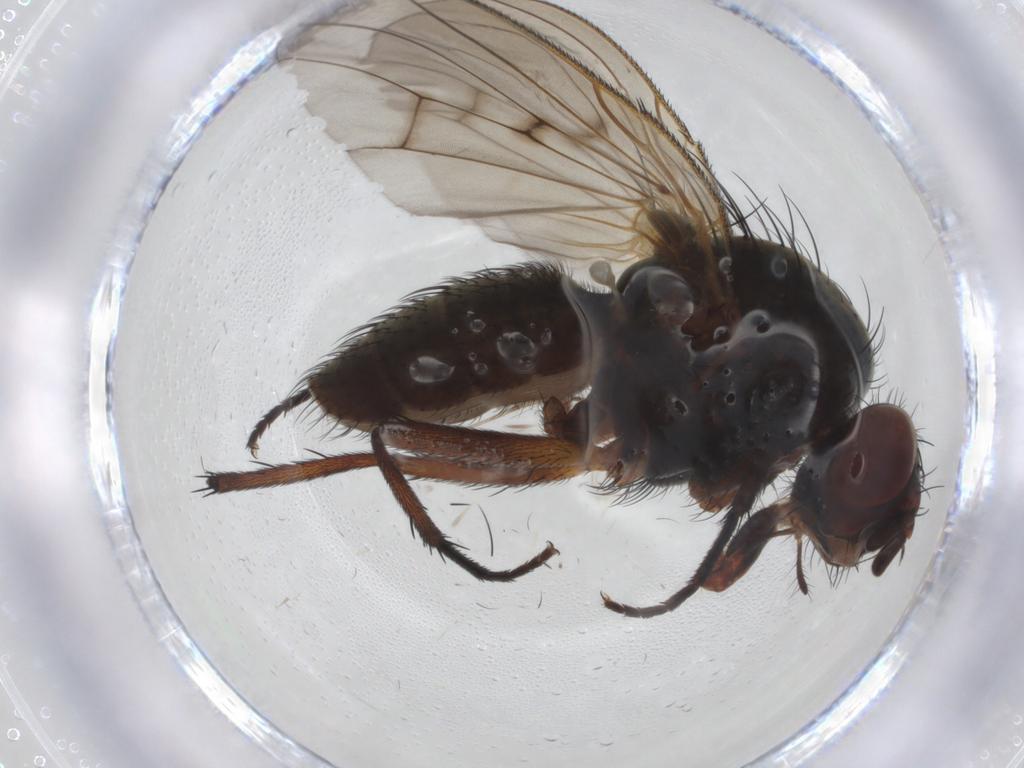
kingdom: Animalia
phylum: Arthropoda
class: Insecta
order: Diptera
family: Anthomyiidae
